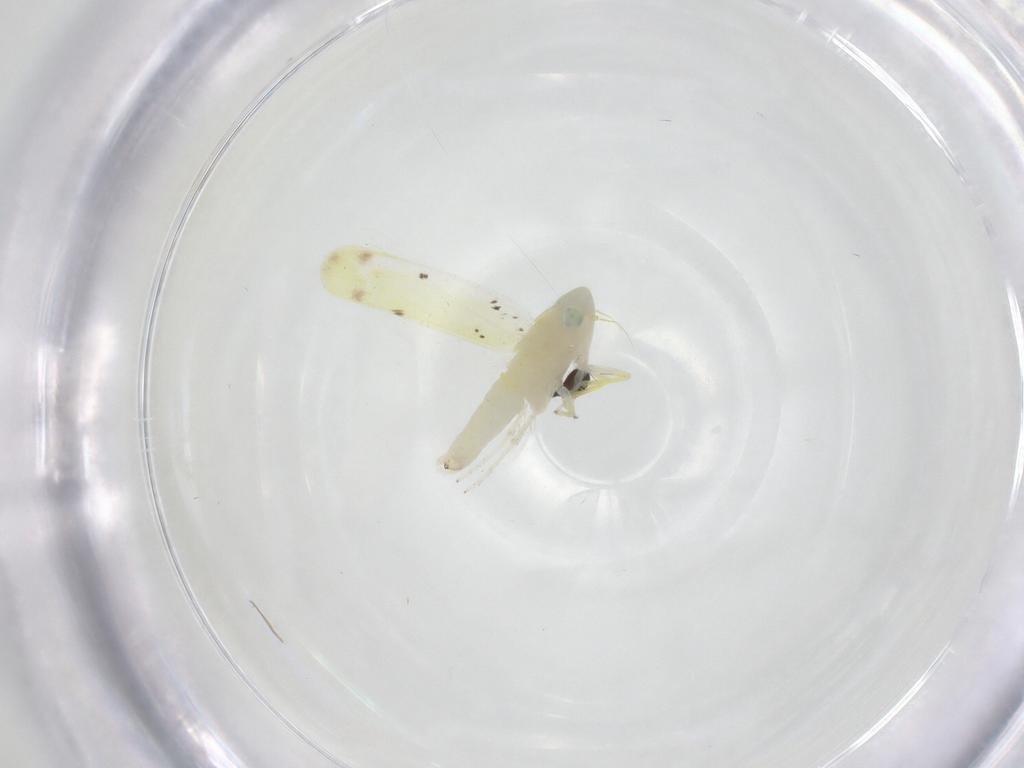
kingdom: Animalia
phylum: Arthropoda
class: Insecta
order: Hemiptera
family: Cicadellidae
